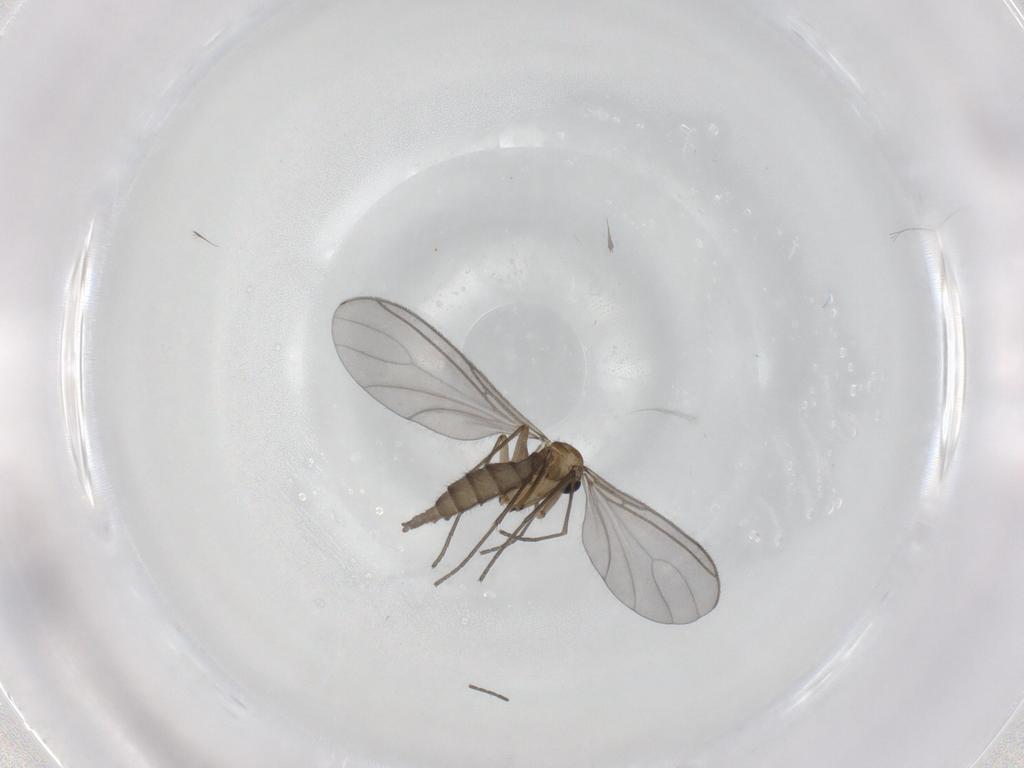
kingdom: Animalia
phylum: Arthropoda
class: Insecta
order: Diptera
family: Sciaridae
